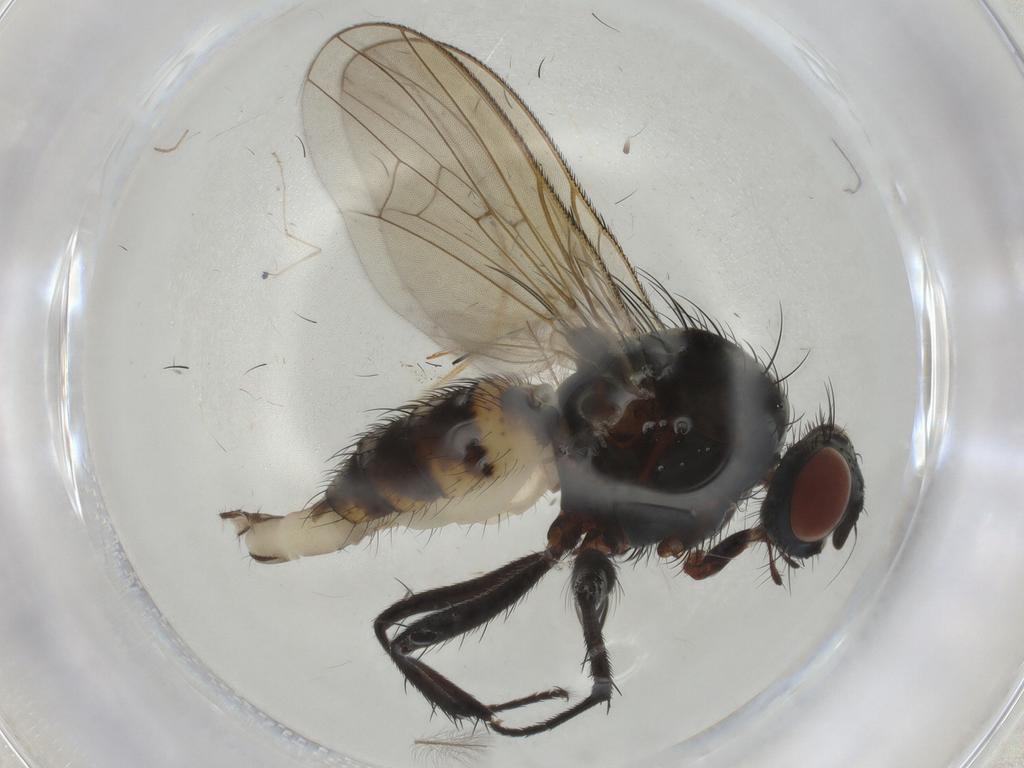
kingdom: Animalia
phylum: Arthropoda
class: Insecta
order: Diptera
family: Anthomyiidae
